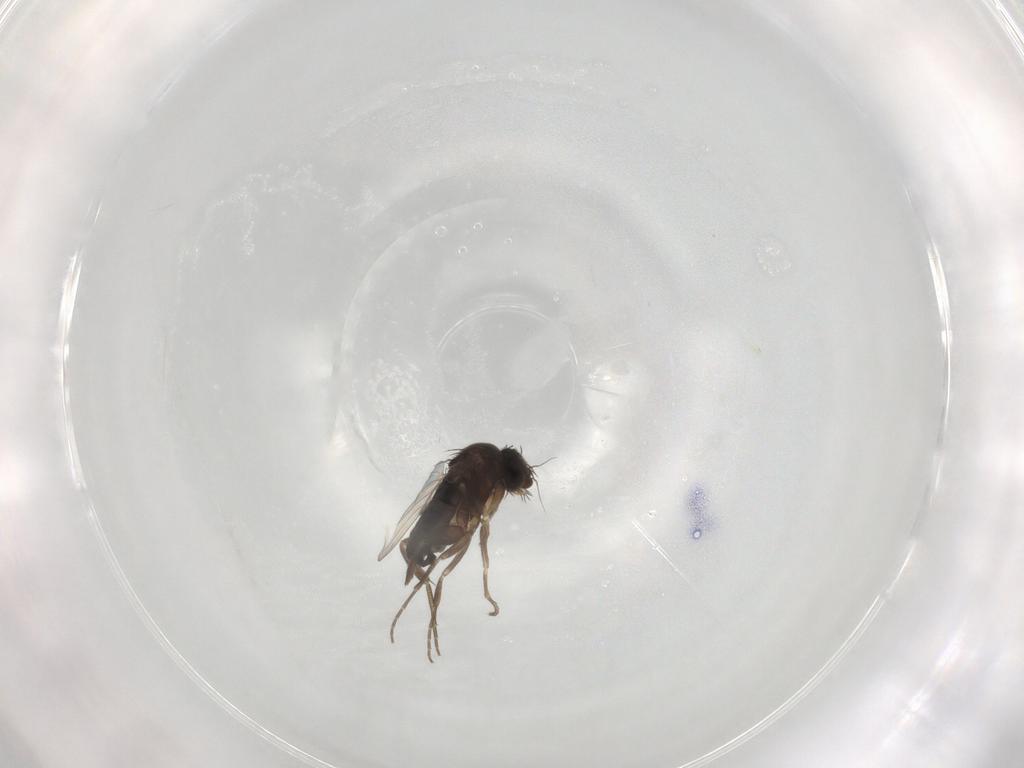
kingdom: Animalia
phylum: Arthropoda
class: Insecta
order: Diptera
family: Phoridae
